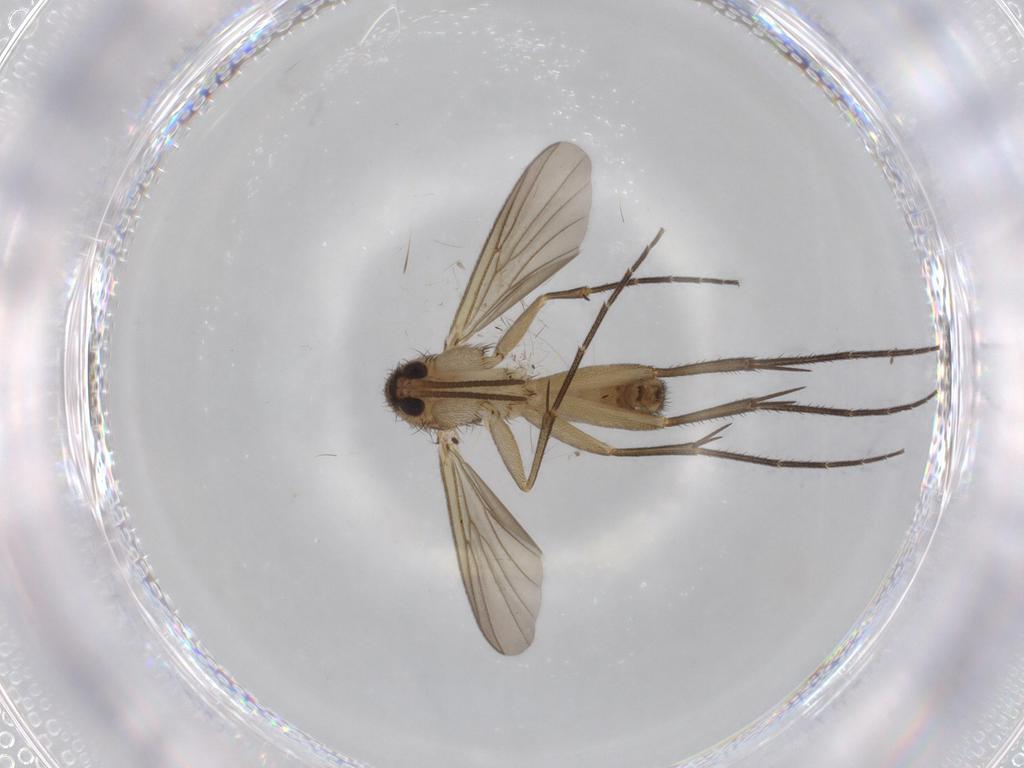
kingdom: Animalia
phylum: Arthropoda
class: Insecta
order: Diptera
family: Mycetophilidae
